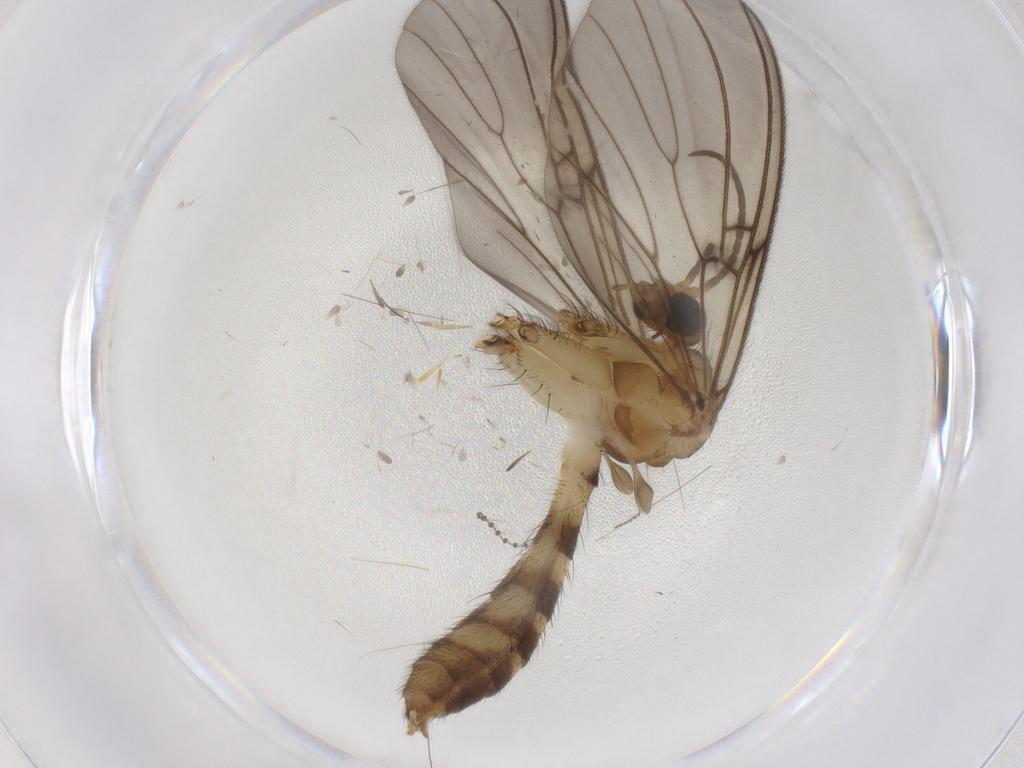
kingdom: Animalia
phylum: Arthropoda
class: Insecta
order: Diptera
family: Mycetophilidae
